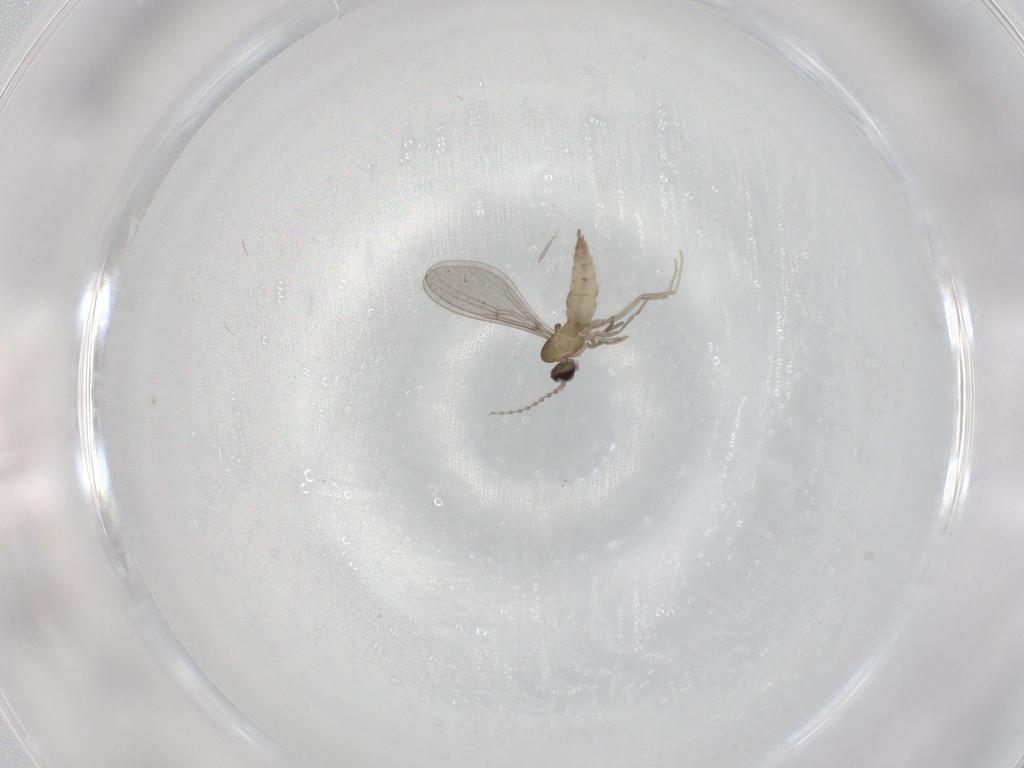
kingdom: Animalia
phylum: Arthropoda
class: Insecta
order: Diptera
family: Cecidomyiidae
